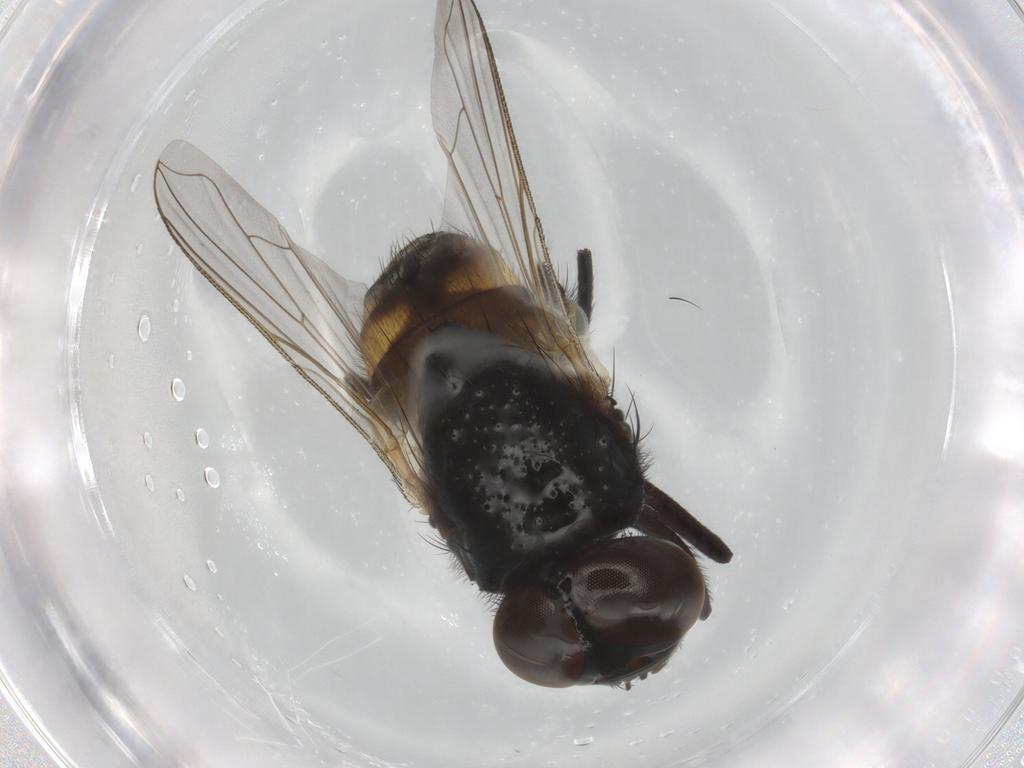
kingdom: Animalia
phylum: Arthropoda
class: Insecta
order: Diptera
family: Muscidae
